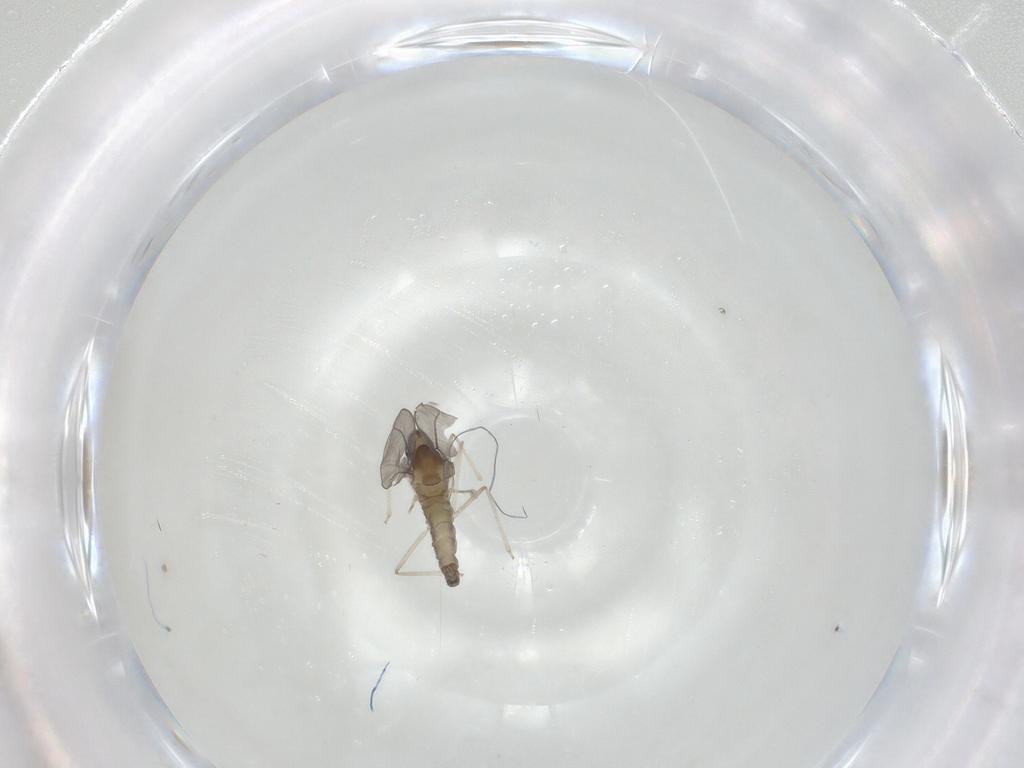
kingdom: Animalia
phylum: Arthropoda
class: Insecta
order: Diptera
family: Cecidomyiidae
